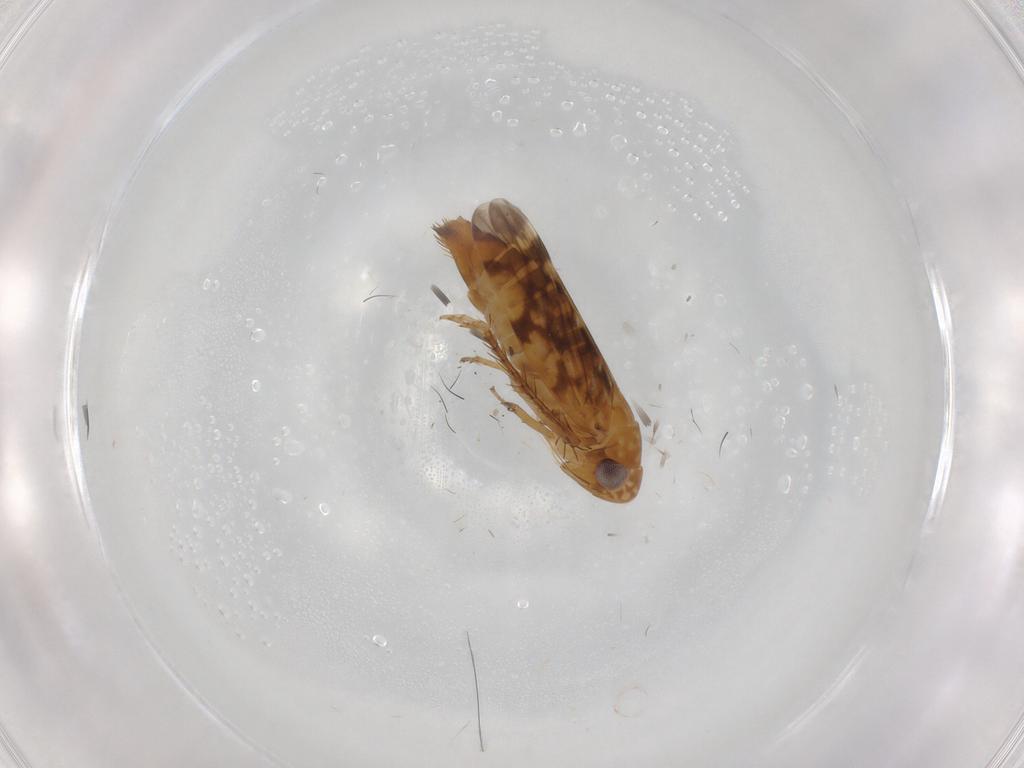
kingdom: Animalia
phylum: Arthropoda
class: Insecta
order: Hemiptera
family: Cicadellidae
